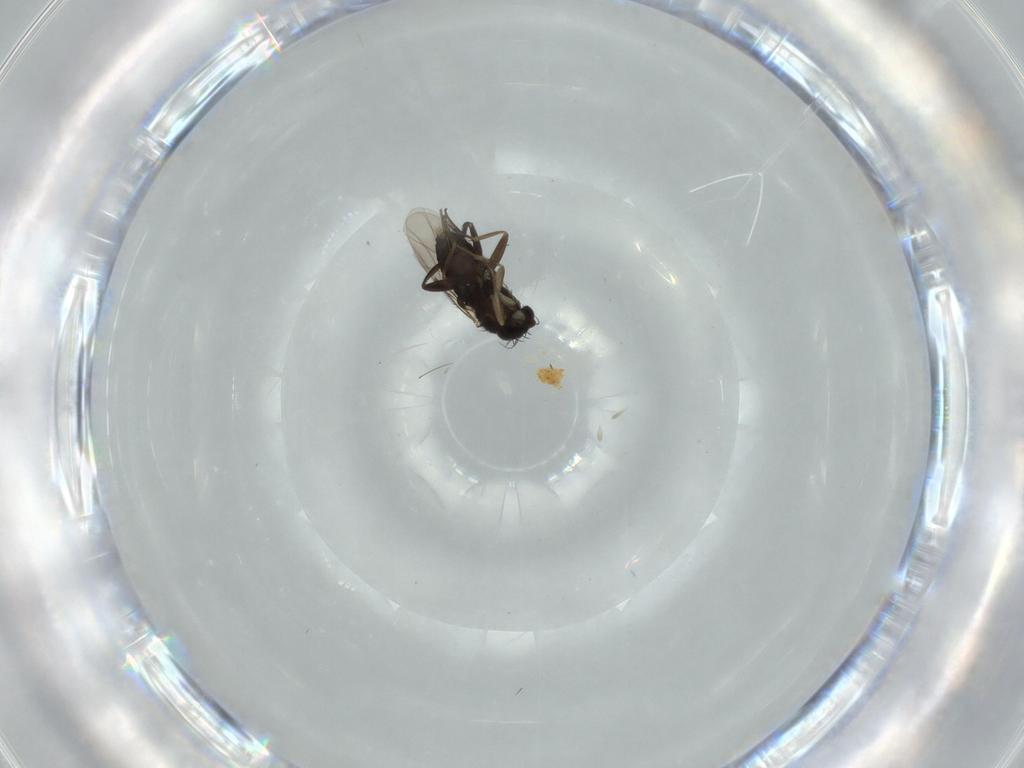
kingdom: Animalia
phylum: Arthropoda
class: Insecta
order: Diptera
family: Phoridae
